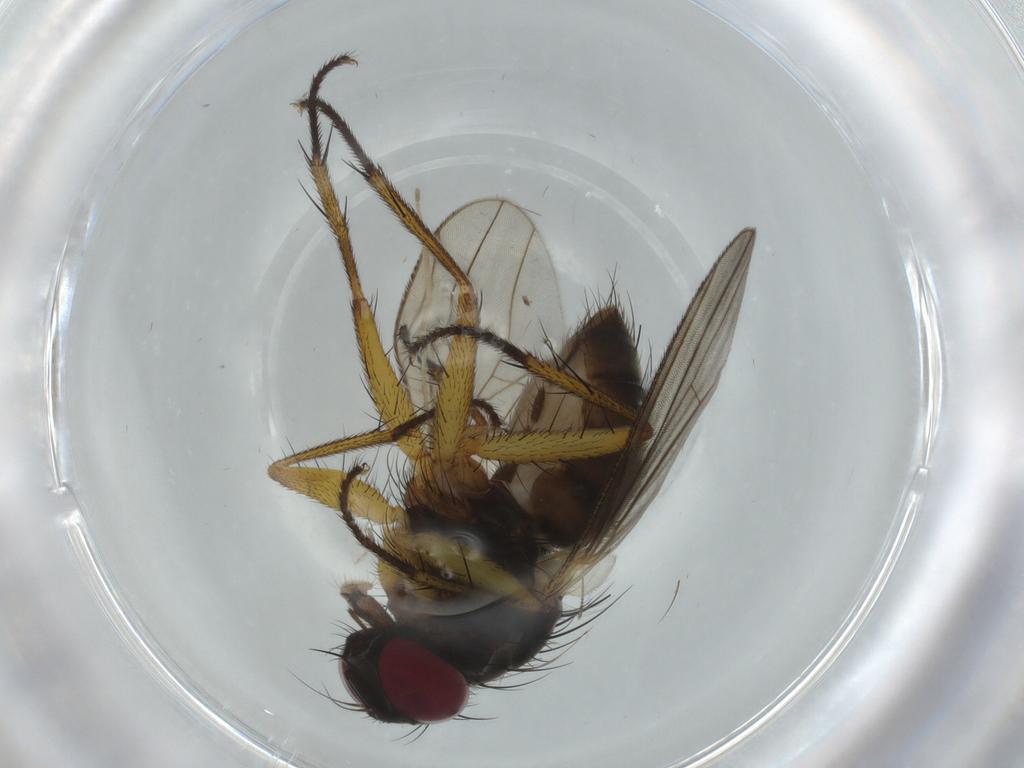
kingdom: Animalia
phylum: Arthropoda
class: Insecta
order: Diptera
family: Muscidae
